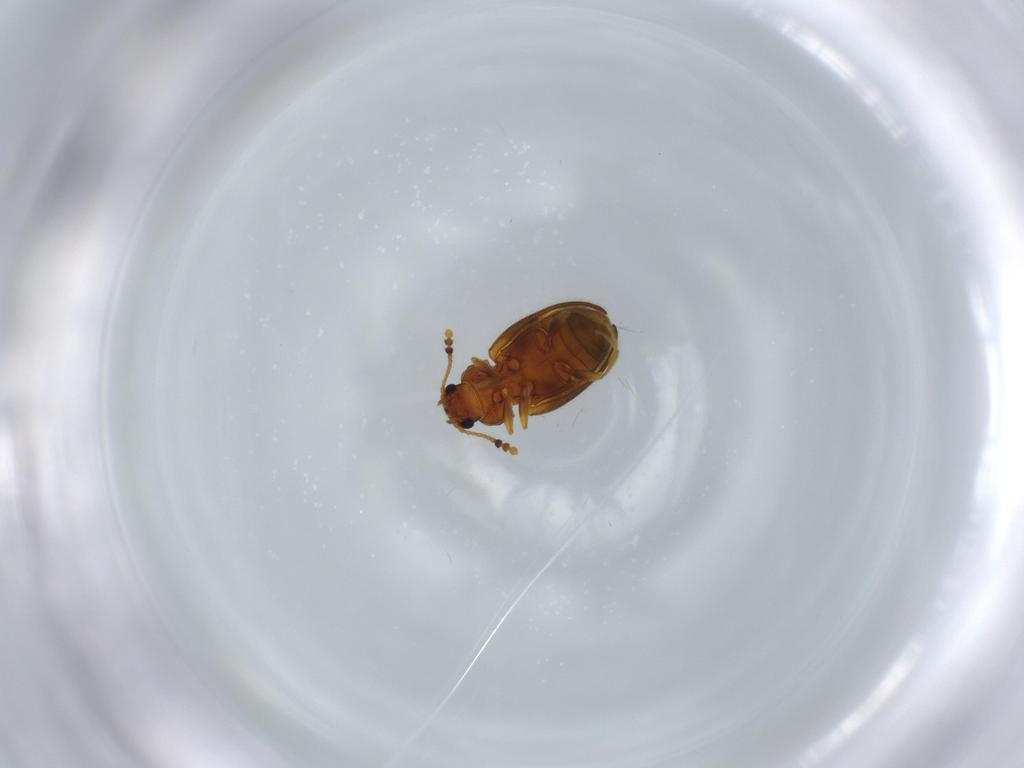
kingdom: Animalia
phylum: Arthropoda
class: Insecta
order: Coleoptera
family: Erotylidae
